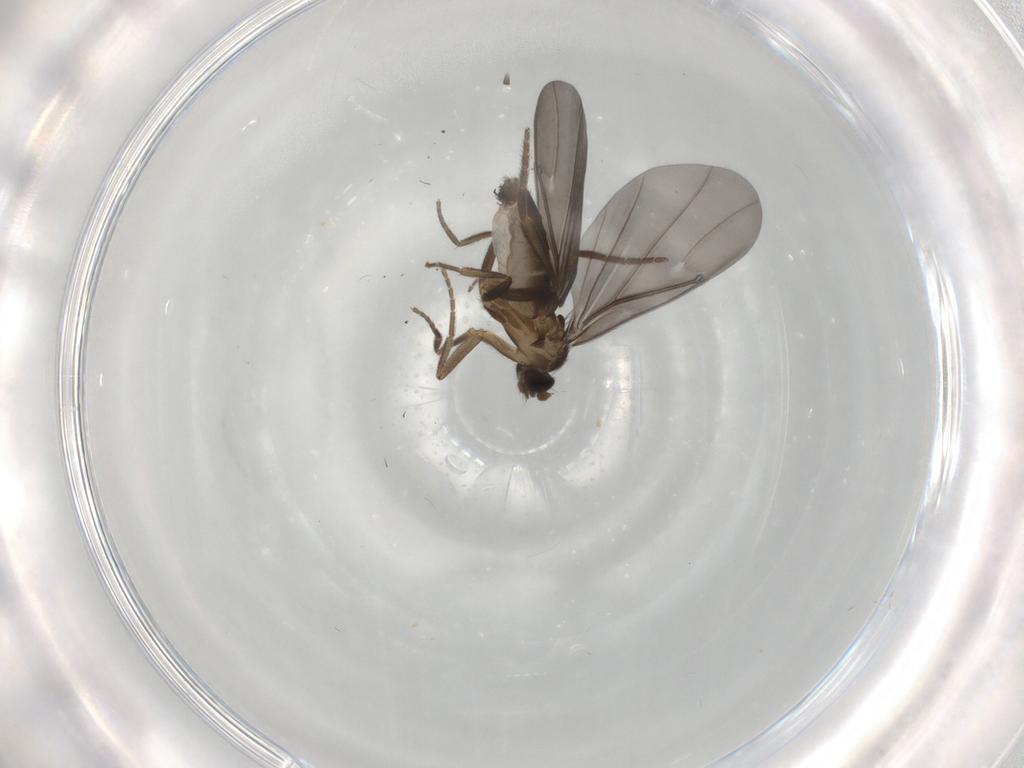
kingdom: Animalia
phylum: Arthropoda
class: Insecta
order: Diptera
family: Phoridae
